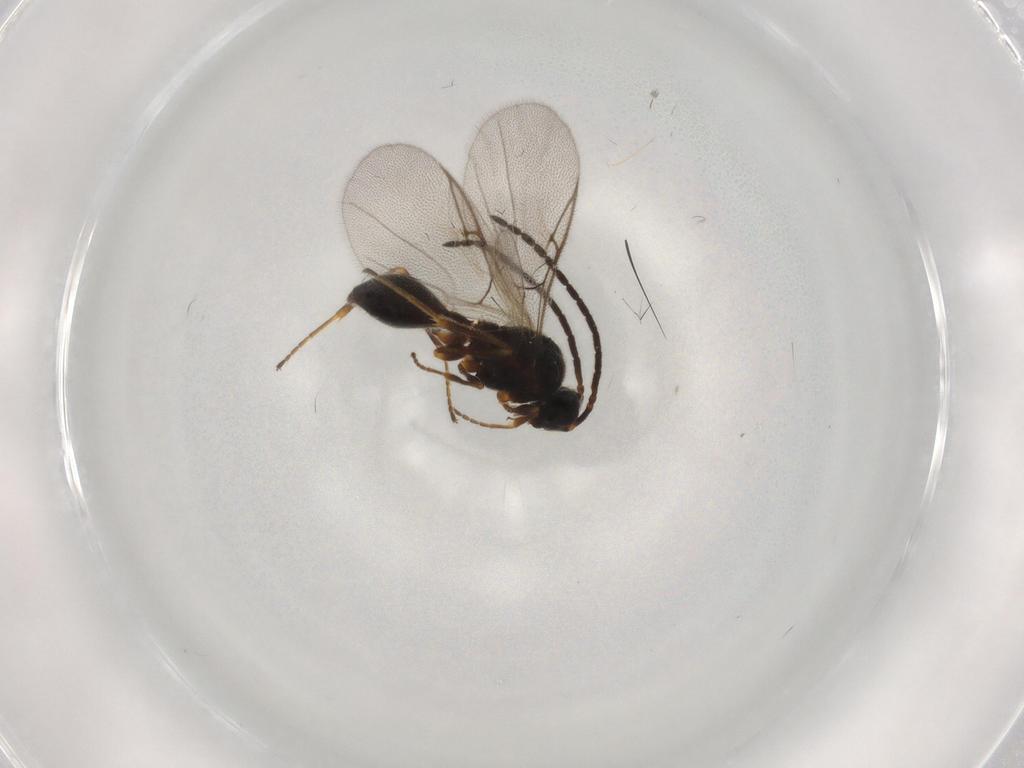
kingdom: Animalia
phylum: Arthropoda
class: Insecta
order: Hymenoptera
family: Diapriidae
